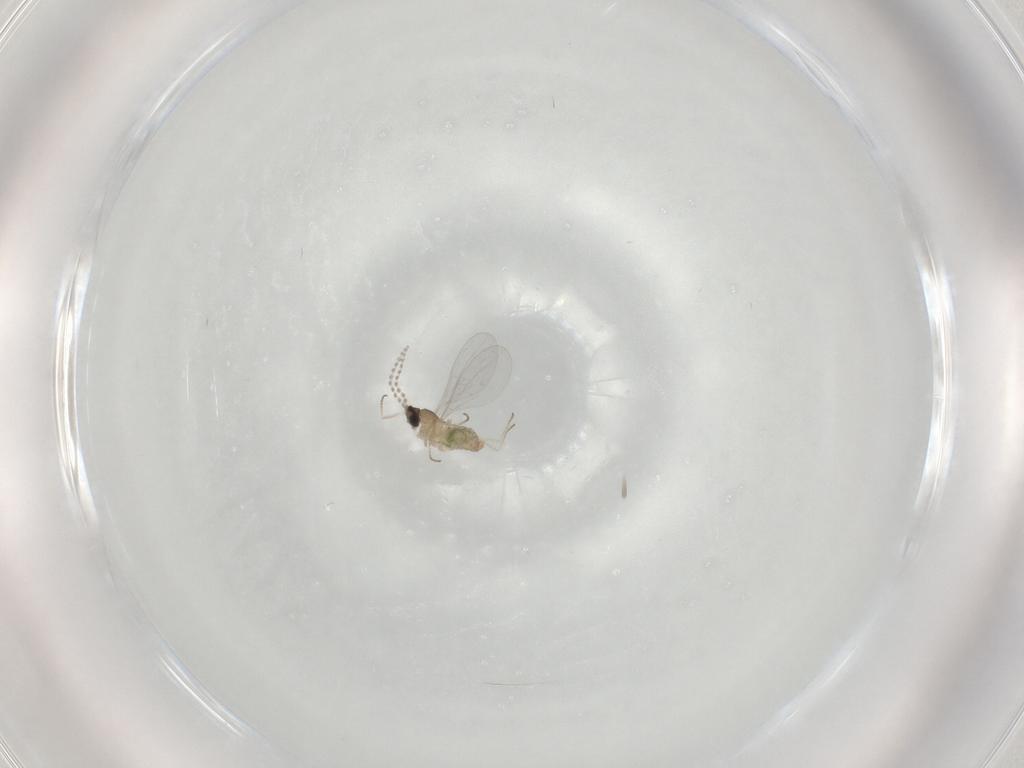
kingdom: Animalia
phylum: Arthropoda
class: Insecta
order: Diptera
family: Cecidomyiidae
